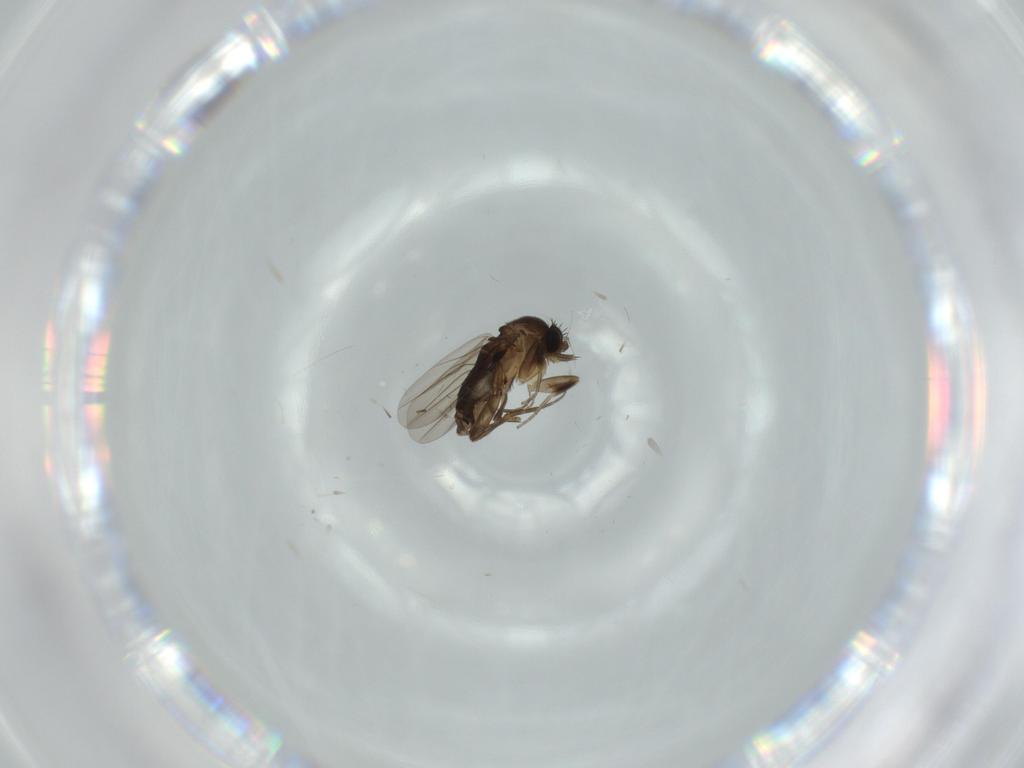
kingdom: Animalia
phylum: Arthropoda
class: Insecta
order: Diptera
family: Phoridae
